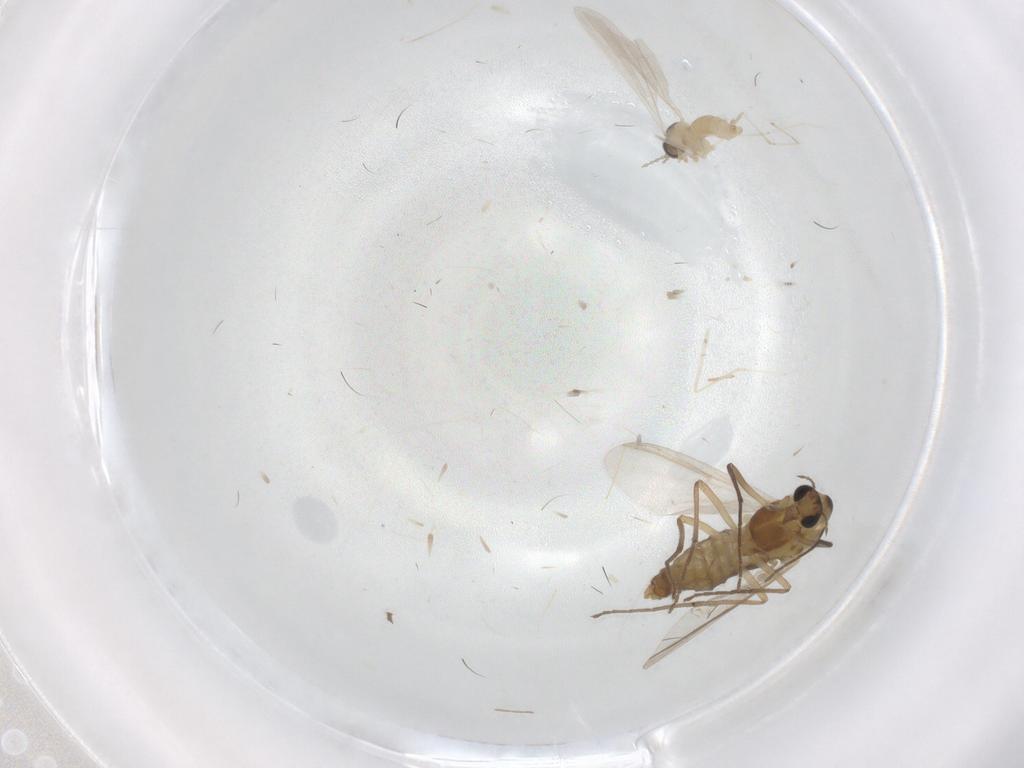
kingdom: Animalia
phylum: Arthropoda
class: Insecta
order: Diptera
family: Cecidomyiidae
